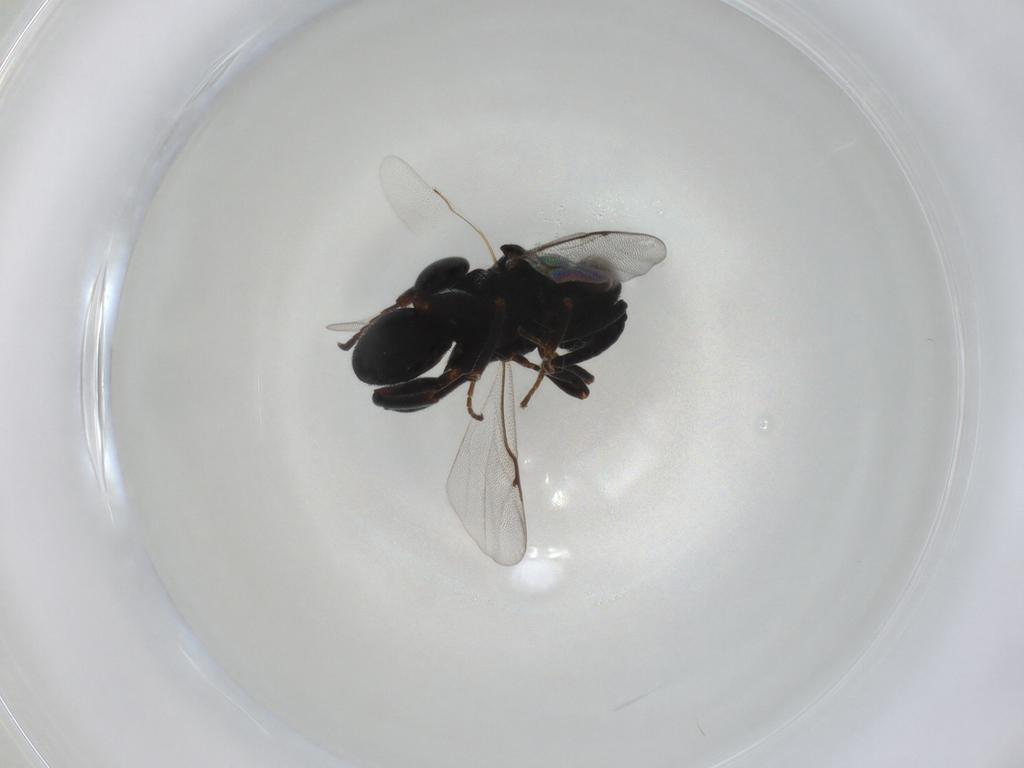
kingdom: Animalia
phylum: Arthropoda
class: Insecta
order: Hymenoptera
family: Chalcididae
